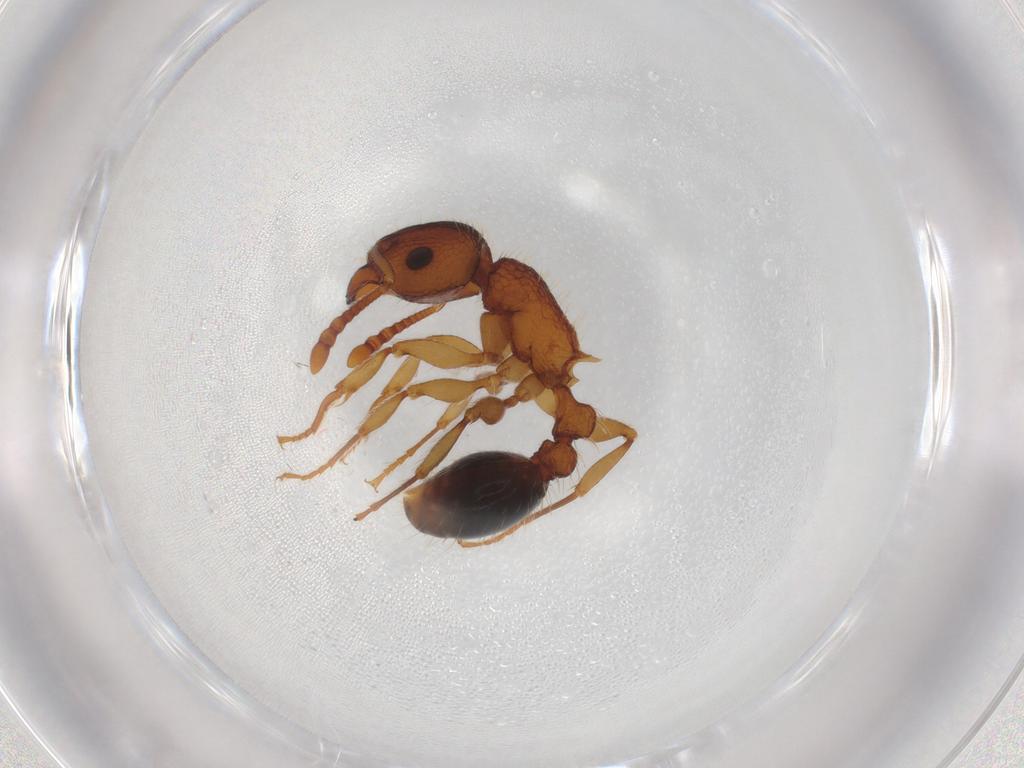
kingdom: Animalia
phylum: Arthropoda
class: Insecta
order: Hymenoptera
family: Formicidae
